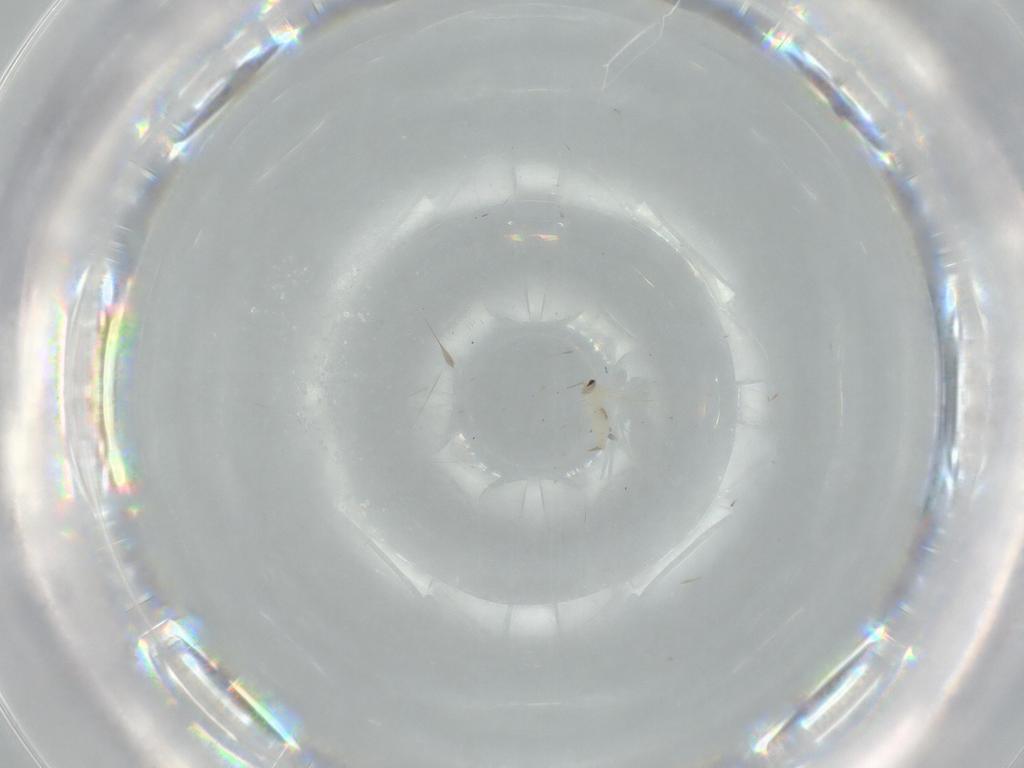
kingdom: Animalia
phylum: Arthropoda
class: Insecta
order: Diptera
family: Cecidomyiidae
